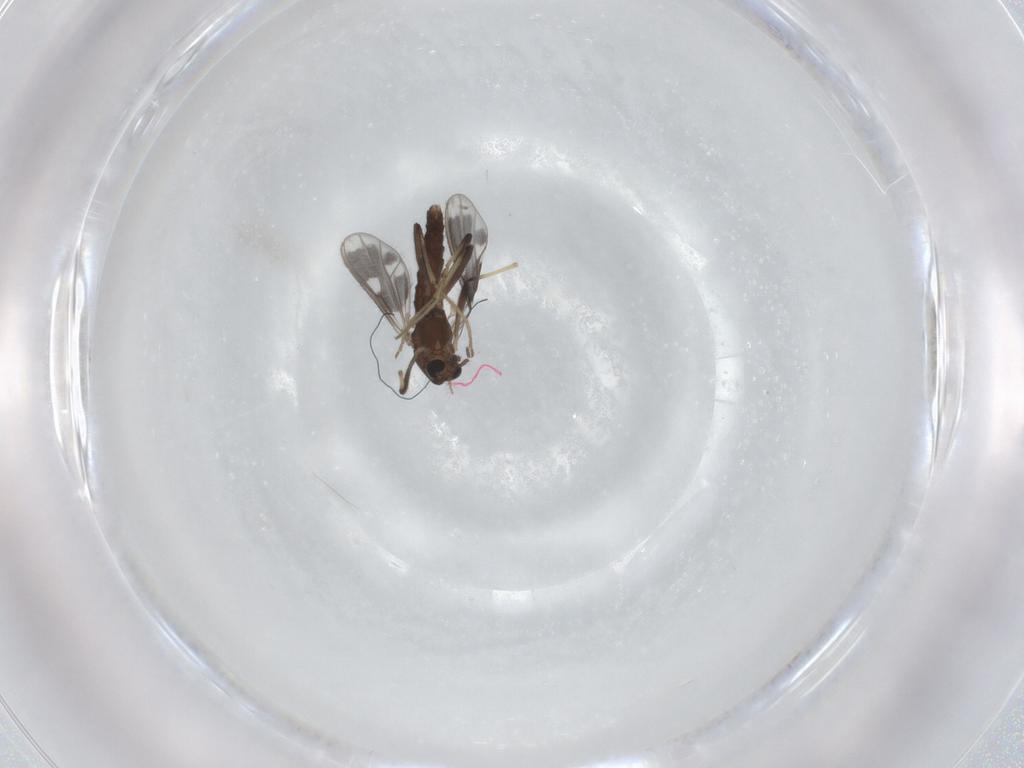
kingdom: Animalia
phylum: Arthropoda
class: Insecta
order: Diptera
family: Chironomidae
